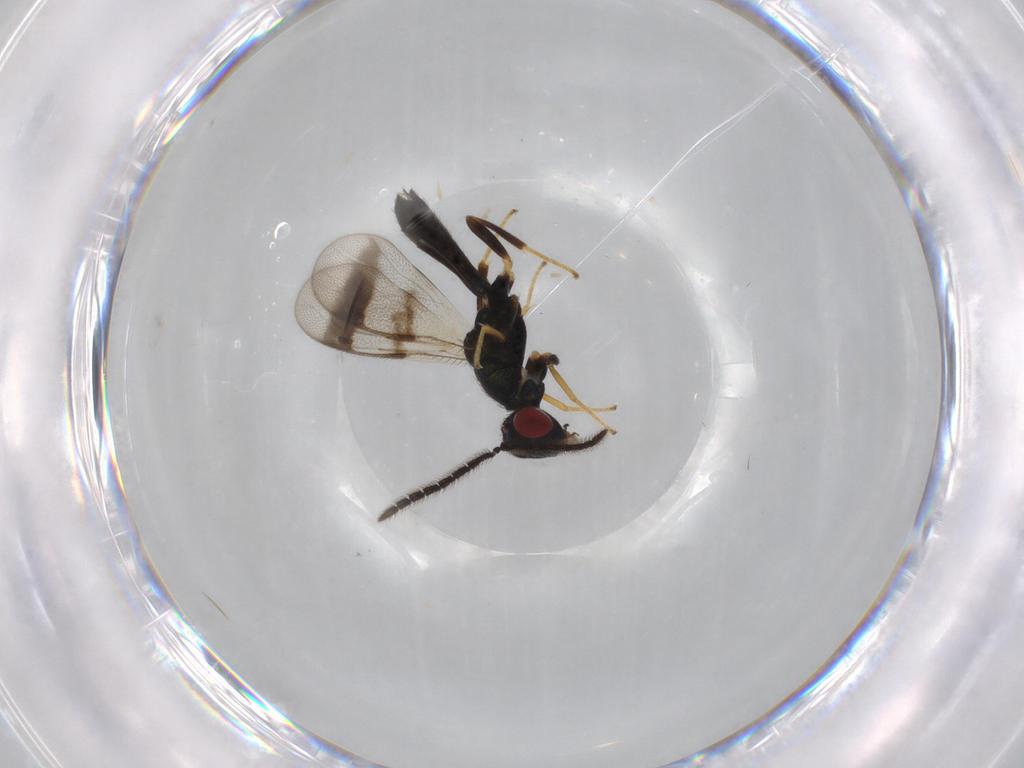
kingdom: Animalia
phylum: Arthropoda
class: Insecta
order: Hymenoptera
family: Pteromalidae
